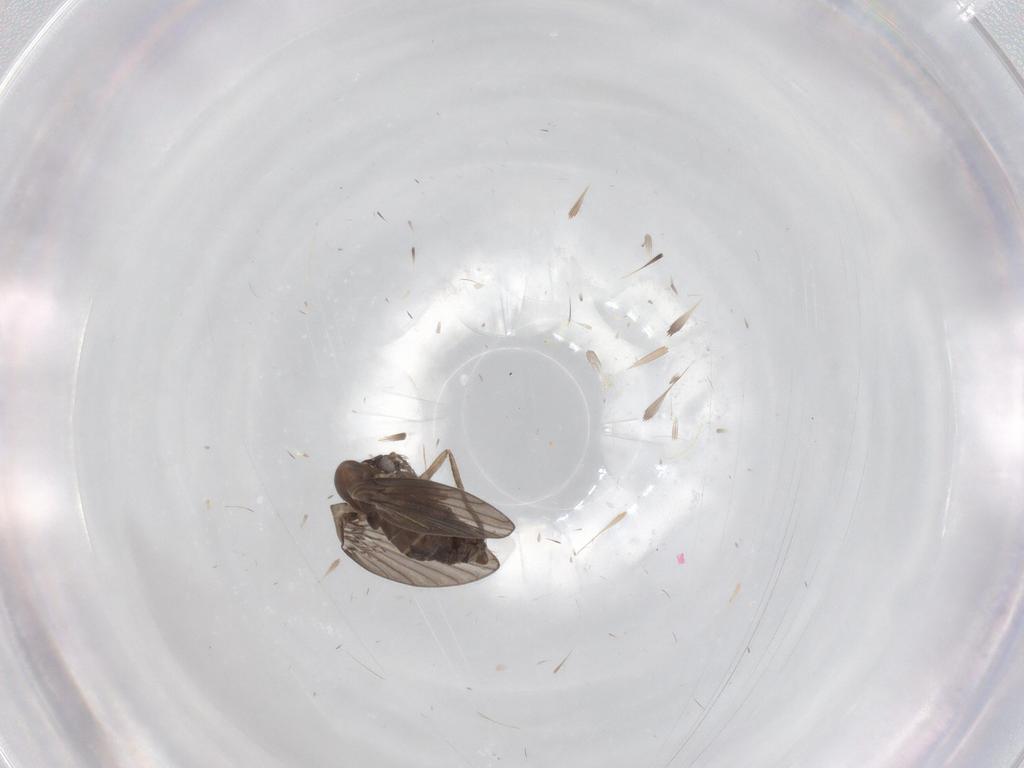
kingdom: Animalia
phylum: Arthropoda
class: Insecta
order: Diptera
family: Psychodidae
